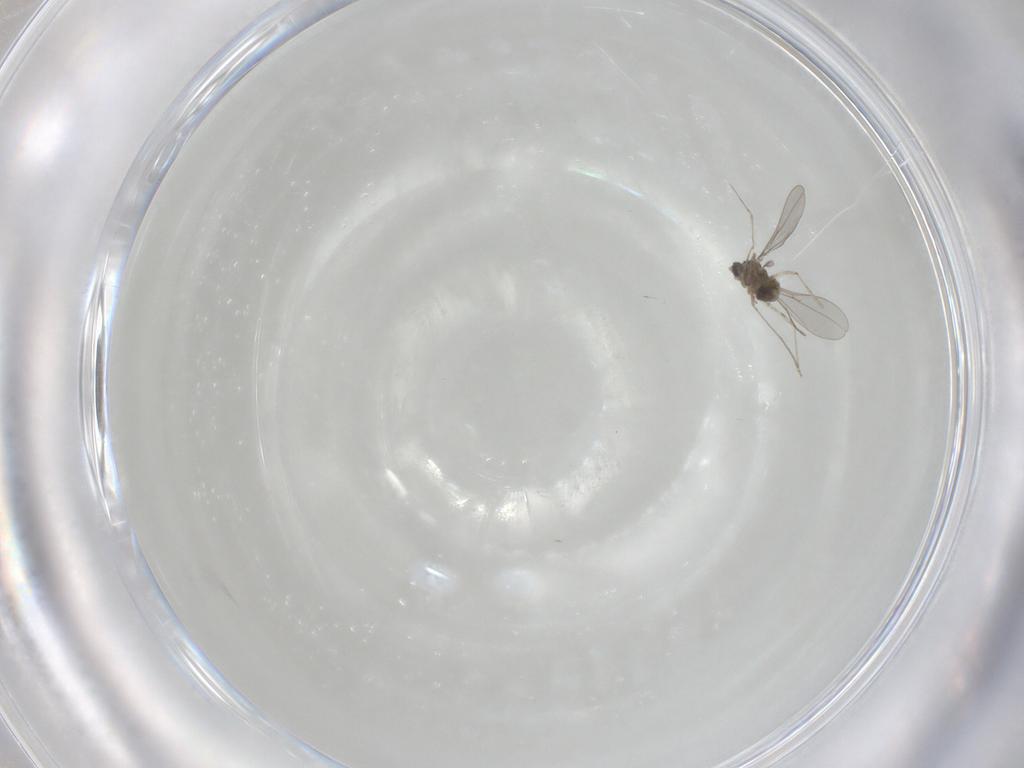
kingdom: Animalia
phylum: Arthropoda
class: Insecta
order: Diptera
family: Cecidomyiidae
